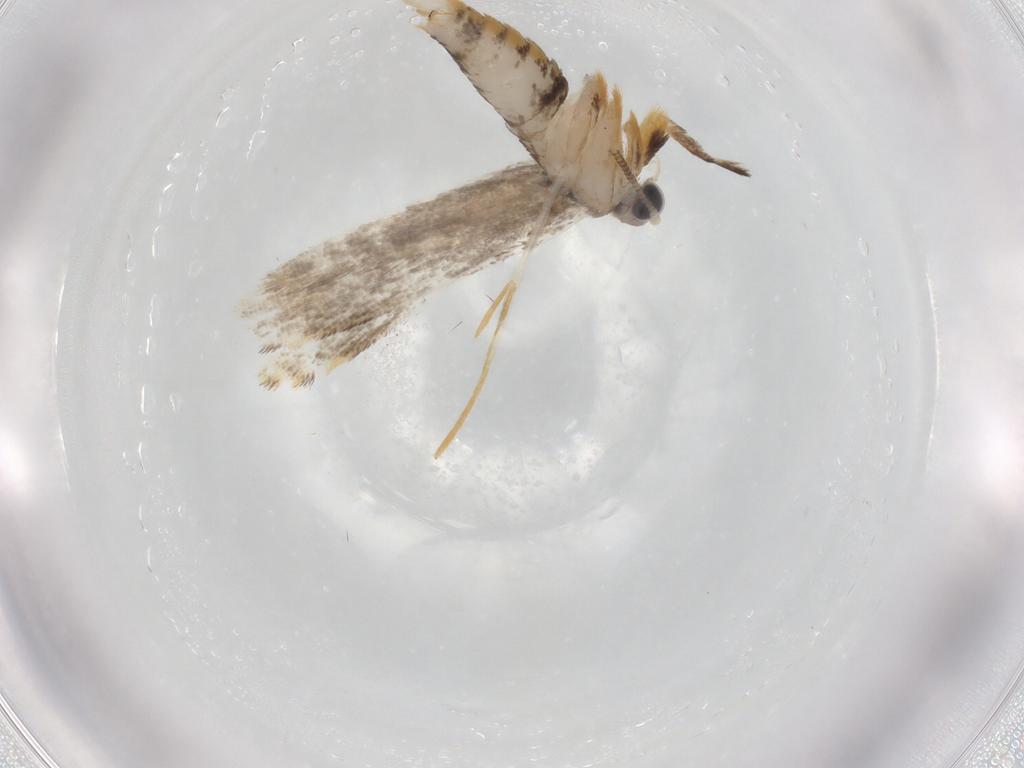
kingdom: Animalia
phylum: Arthropoda
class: Insecta
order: Lepidoptera
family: Tineidae
